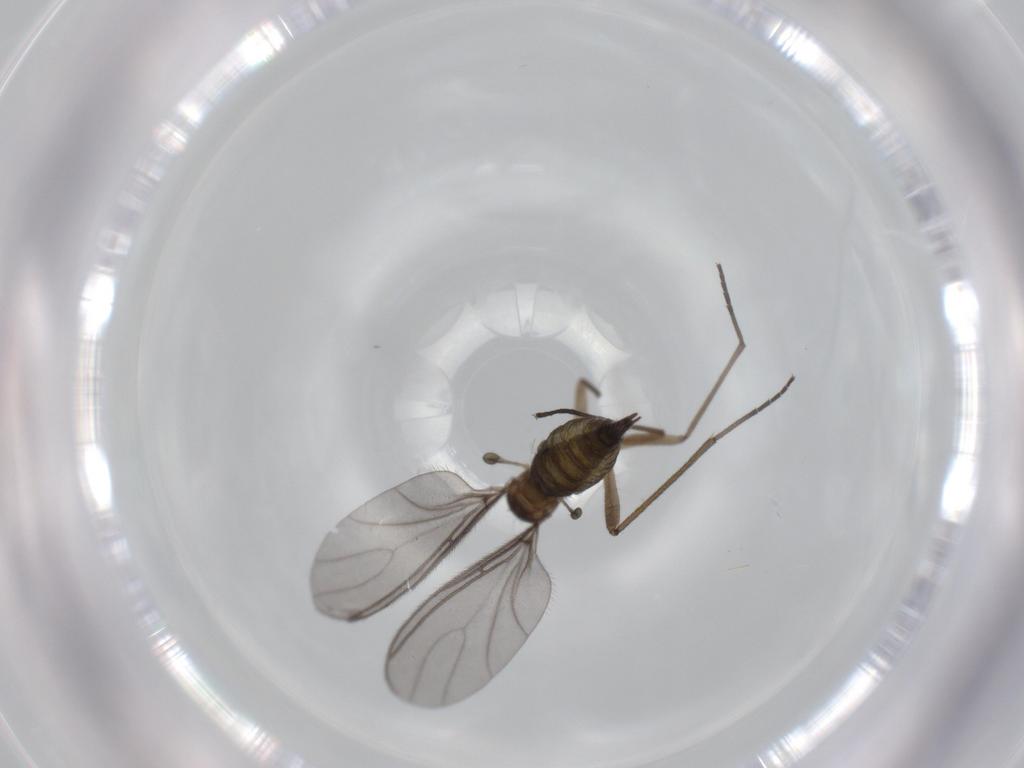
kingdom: Animalia
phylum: Arthropoda
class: Insecta
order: Diptera
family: Sciaridae
